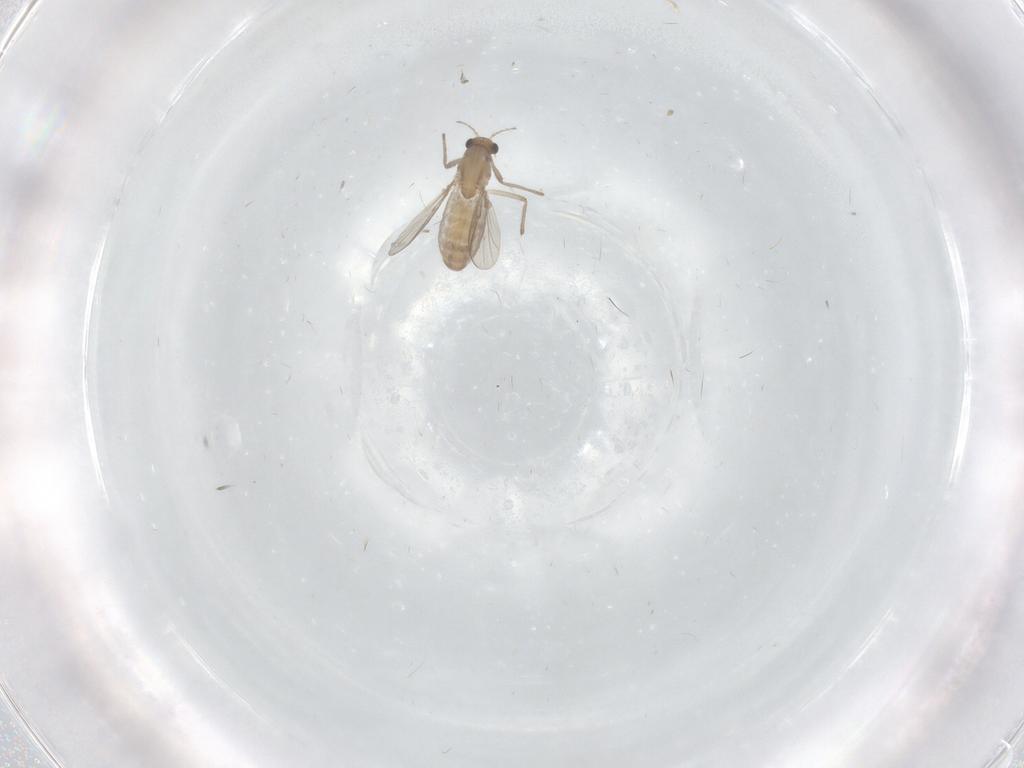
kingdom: Animalia
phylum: Arthropoda
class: Insecta
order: Diptera
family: Chironomidae
